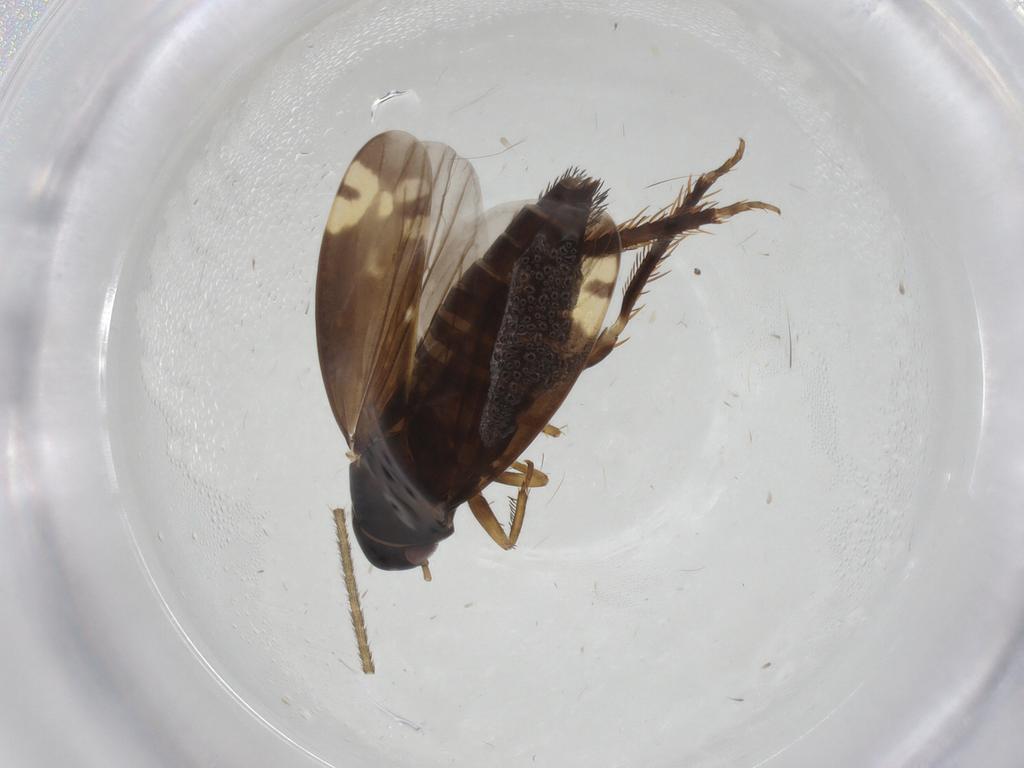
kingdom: Animalia
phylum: Arthropoda
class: Insecta
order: Hemiptera
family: Cicadellidae
